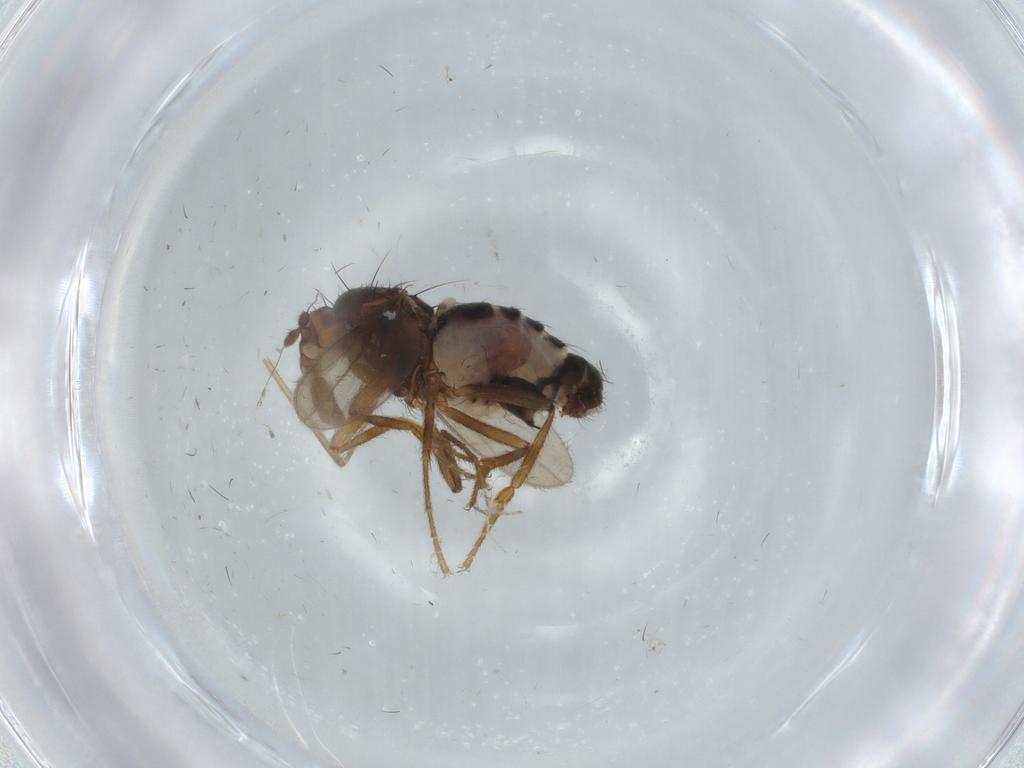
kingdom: Animalia
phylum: Arthropoda
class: Insecta
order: Diptera
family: Sphaeroceridae
